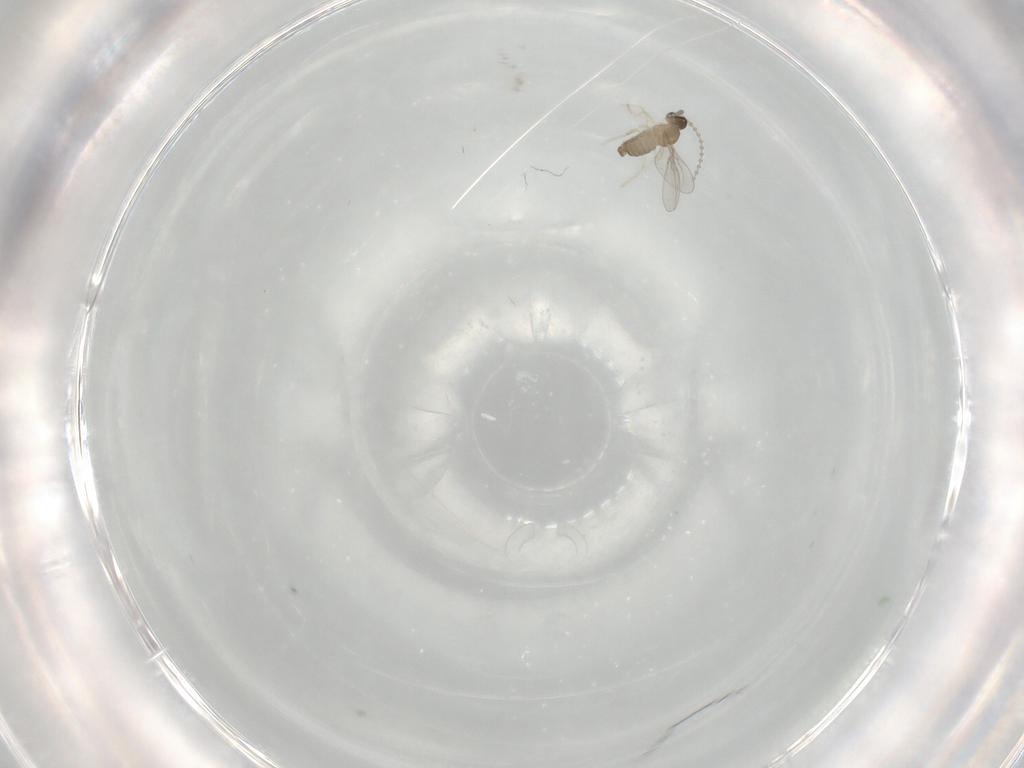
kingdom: Animalia
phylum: Arthropoda
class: Insecta
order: Diptera
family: Cecidomyiidae
